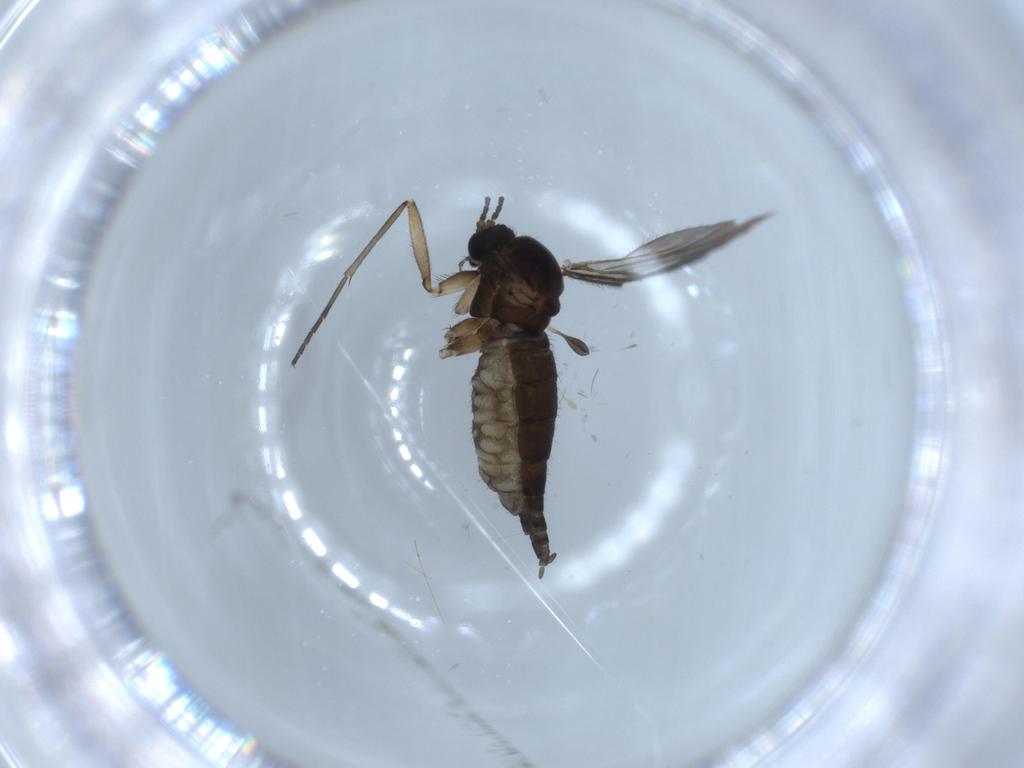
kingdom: Animalia
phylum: Arthropoda
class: Insecta
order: Diptera
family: Sciaridae
